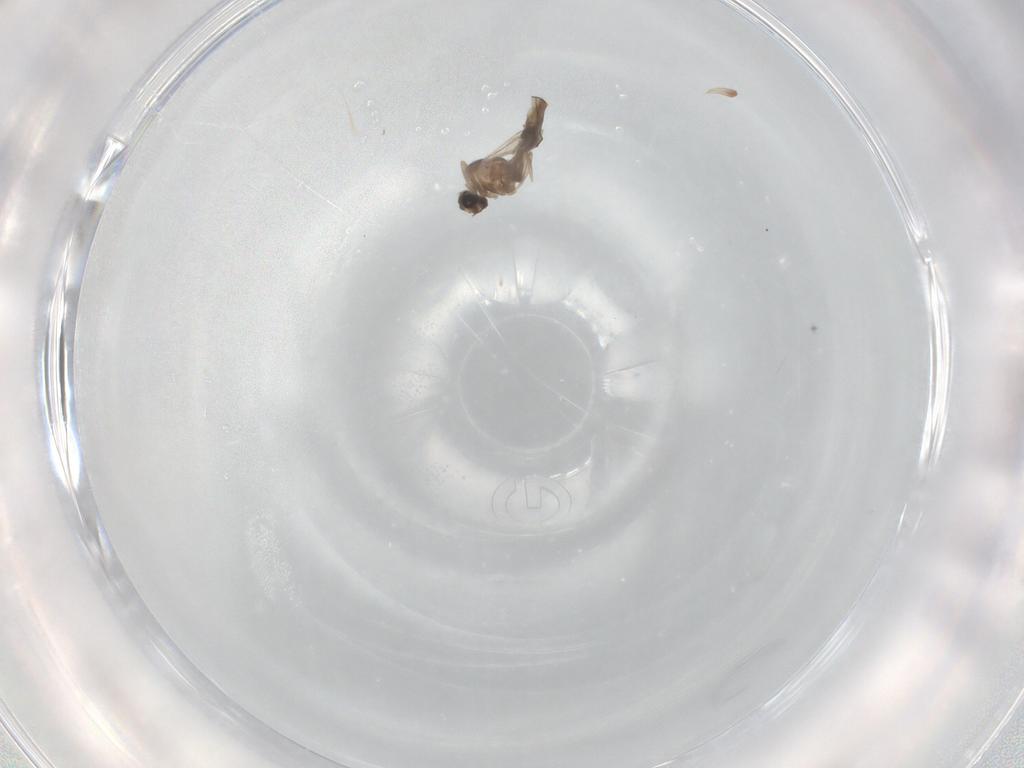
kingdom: Animalia
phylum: Arthropoda
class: Insecta
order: Diptera
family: Cecidomyiidae
